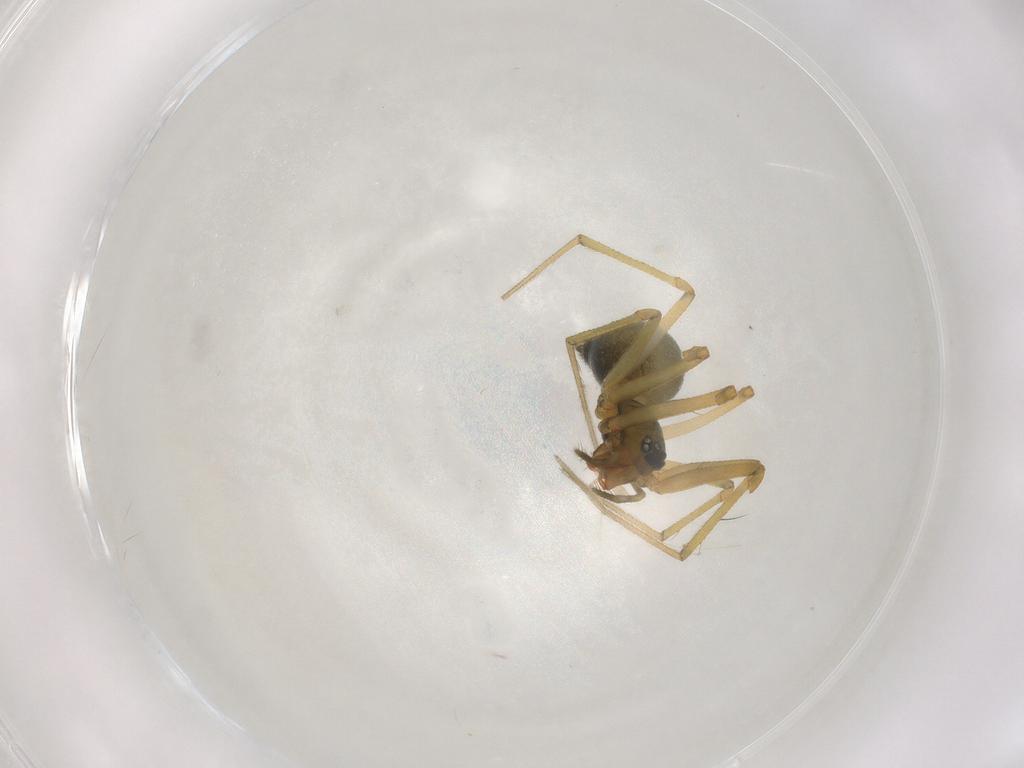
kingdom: Animalia
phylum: Arthropoda
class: Arachnida
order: Araneae
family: Linyphiidae
